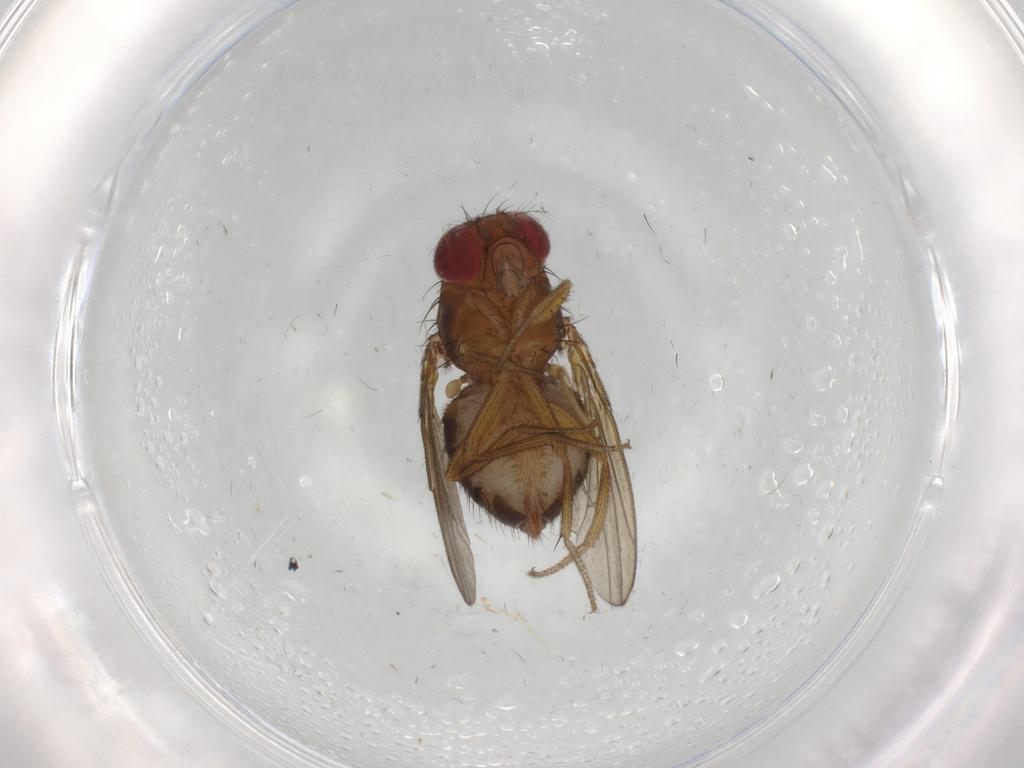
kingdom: Animalia
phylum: Arthropoda
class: Insecta
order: Diptera
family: Drosophilidae
